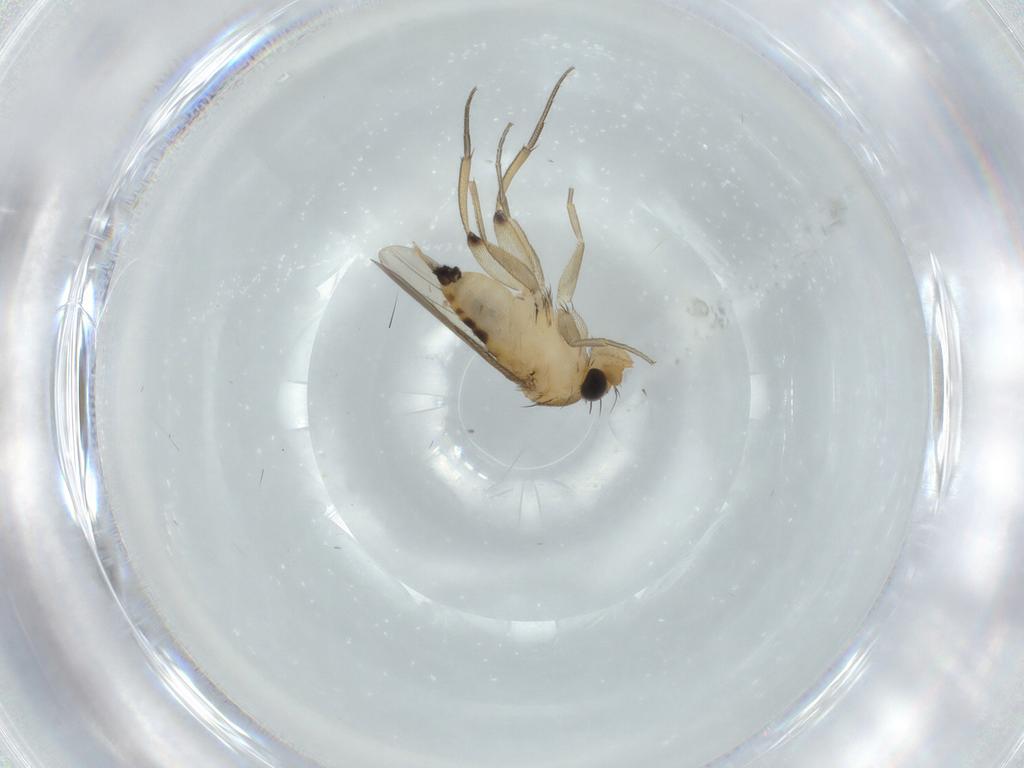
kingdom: Animalia
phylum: Arthropoda
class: Insecta
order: Diptera
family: Phoridae
